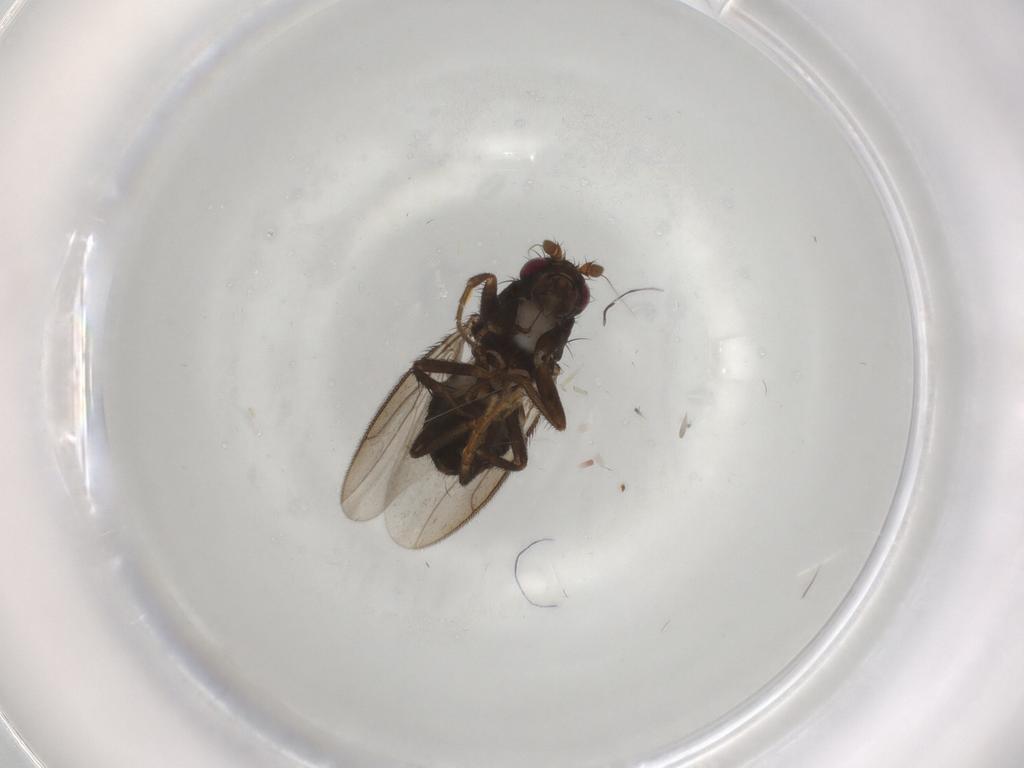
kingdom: Animalia
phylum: Arthropoda
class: Insecta
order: Diptera
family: Sphaeroceridae
